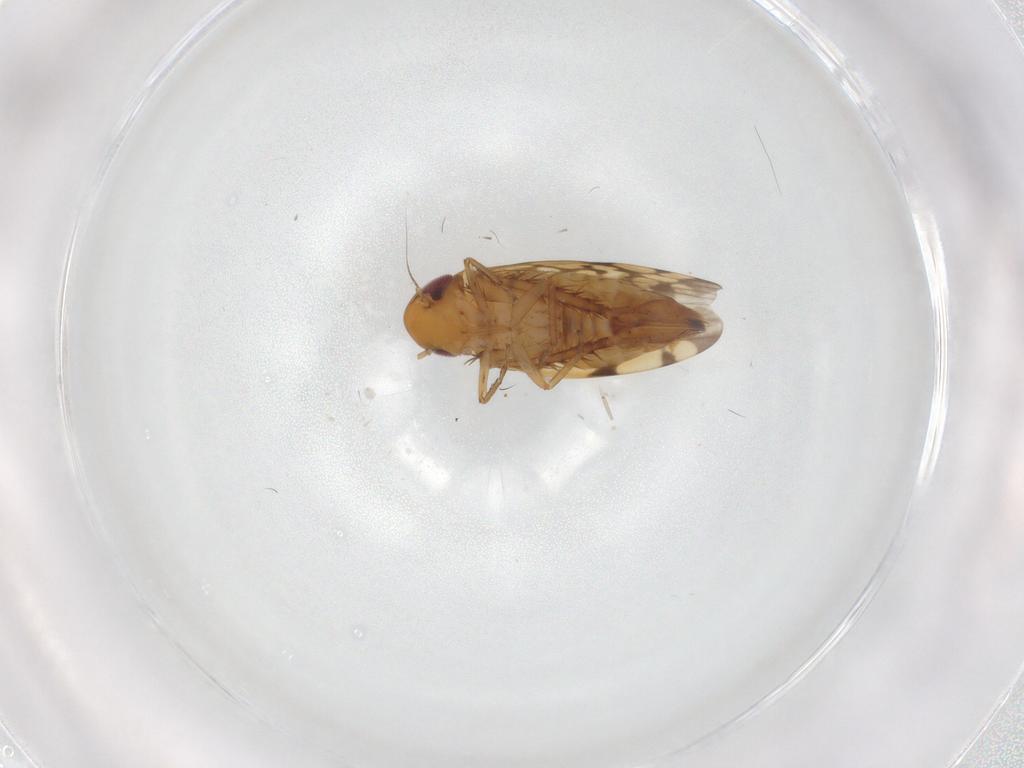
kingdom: Animalia
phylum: Arthropoda
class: Insecta
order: Hemiptera
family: Cicadellidae
